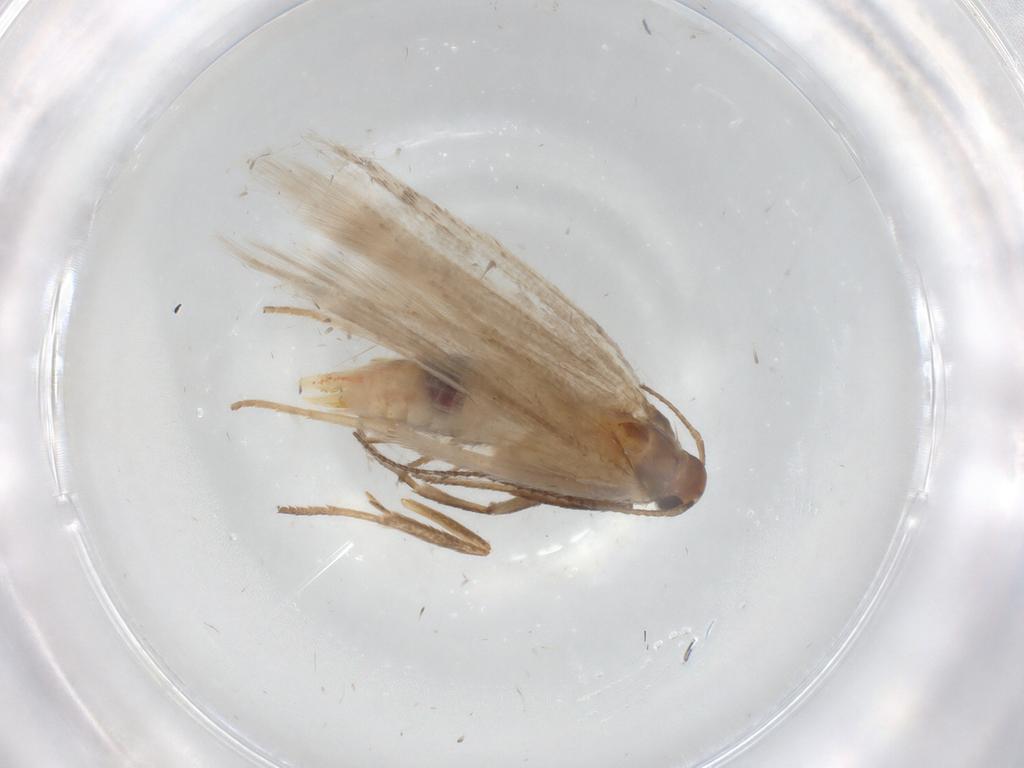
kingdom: Animalia
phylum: Arthropoda
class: Insecta
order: Lepidoptera
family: Gelechiidae
